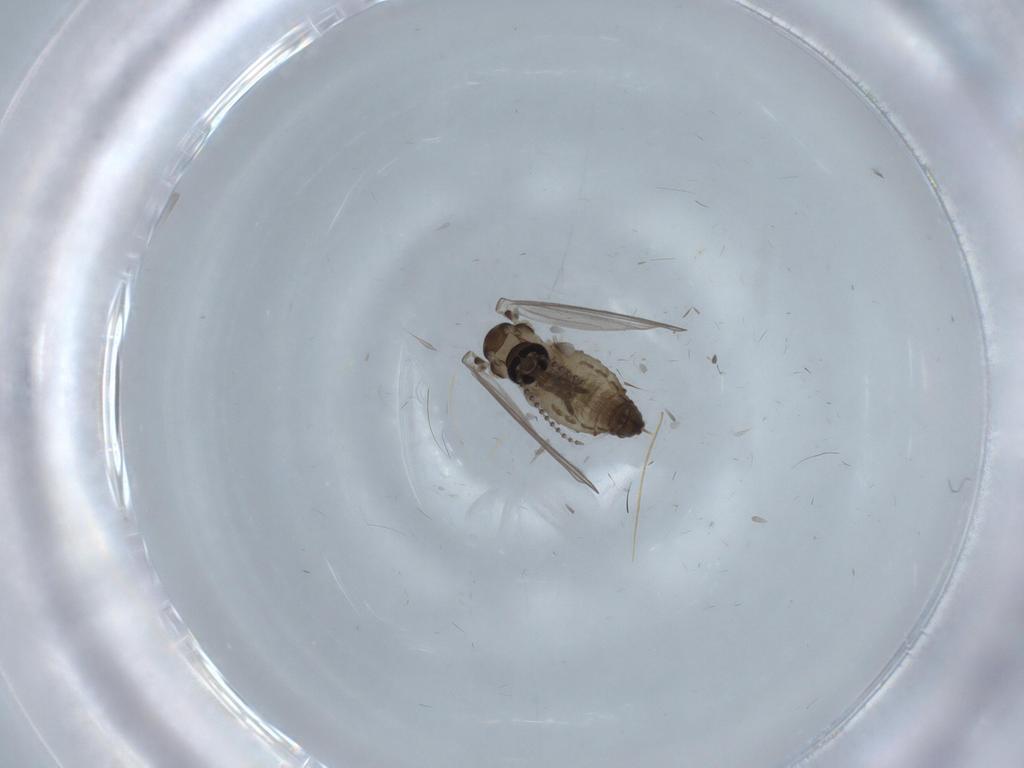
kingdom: Animalia
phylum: Arthropoda
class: Insecta
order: Diptera
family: Psychodidae
